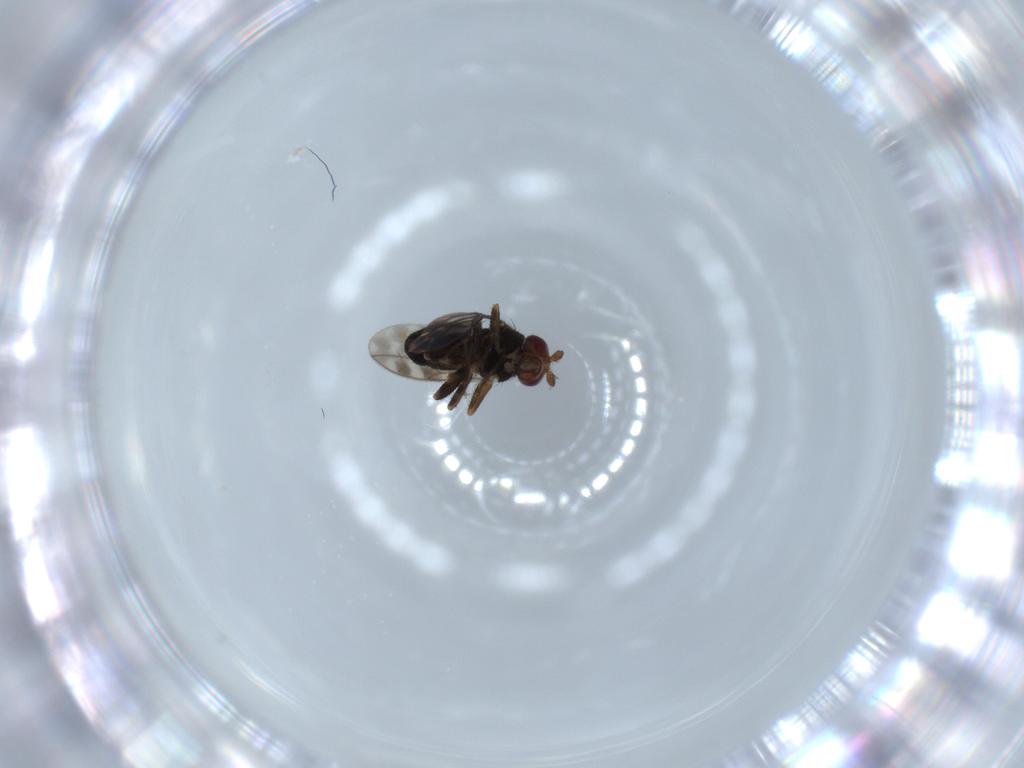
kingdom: Animalia
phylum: Arthropoda
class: Insecta
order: Diptera
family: Sphaeroceridae
